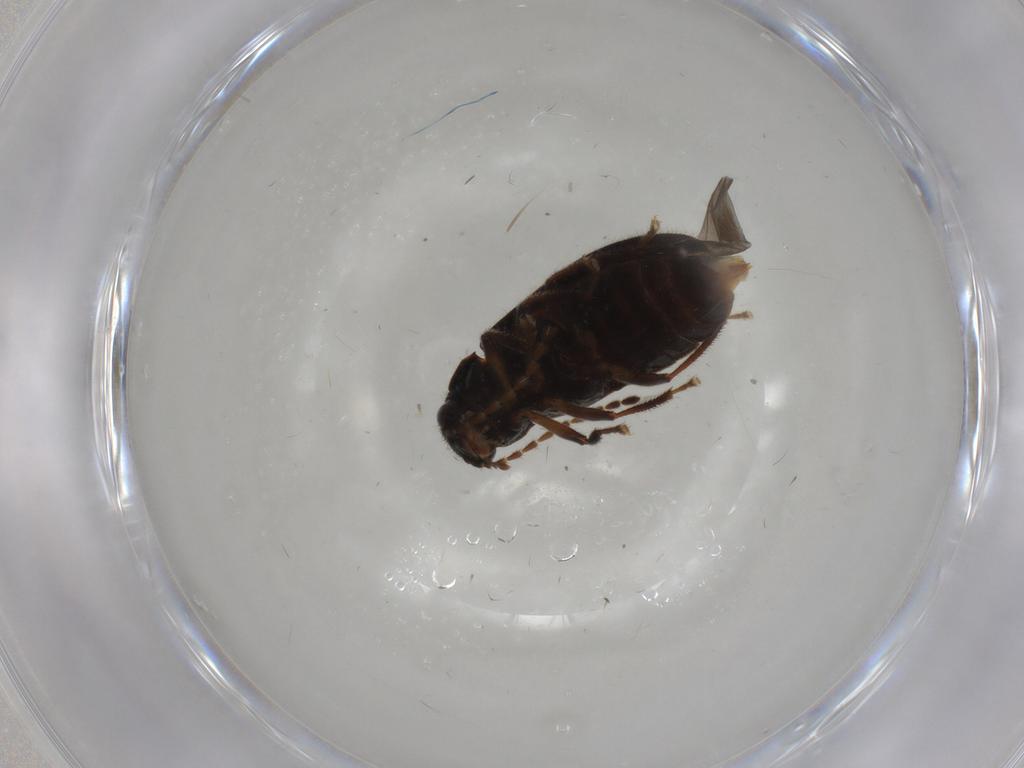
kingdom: Animalia
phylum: Arthropoda
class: Insecta
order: Coleoptera
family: Ptilodactylidae
